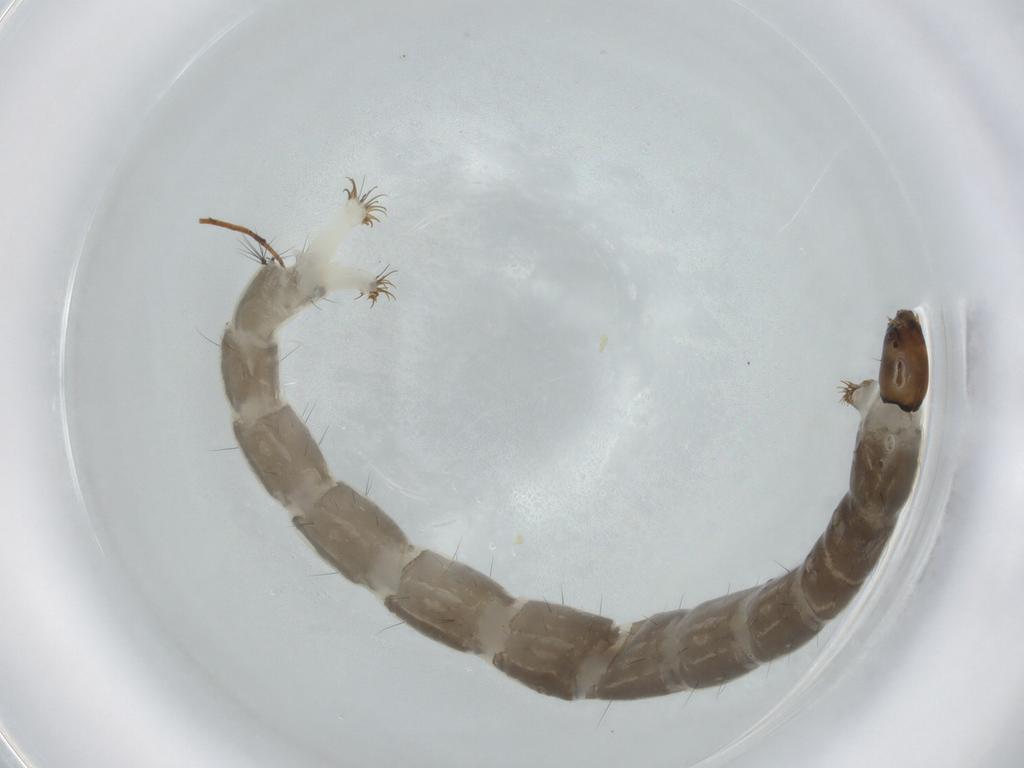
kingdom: Animalia
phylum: Arthropoda
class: Insecta
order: Diptera
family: Chironomidae
